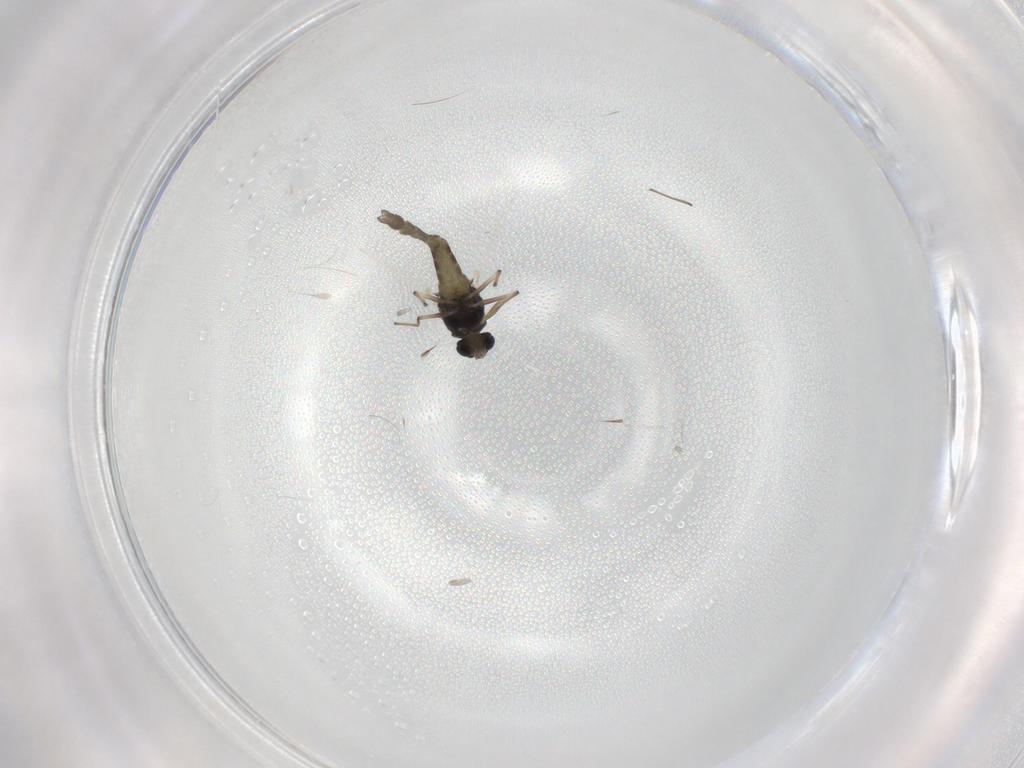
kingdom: Animalia
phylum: Arthropoda
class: Insecta
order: Diptera
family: Chironomidae
